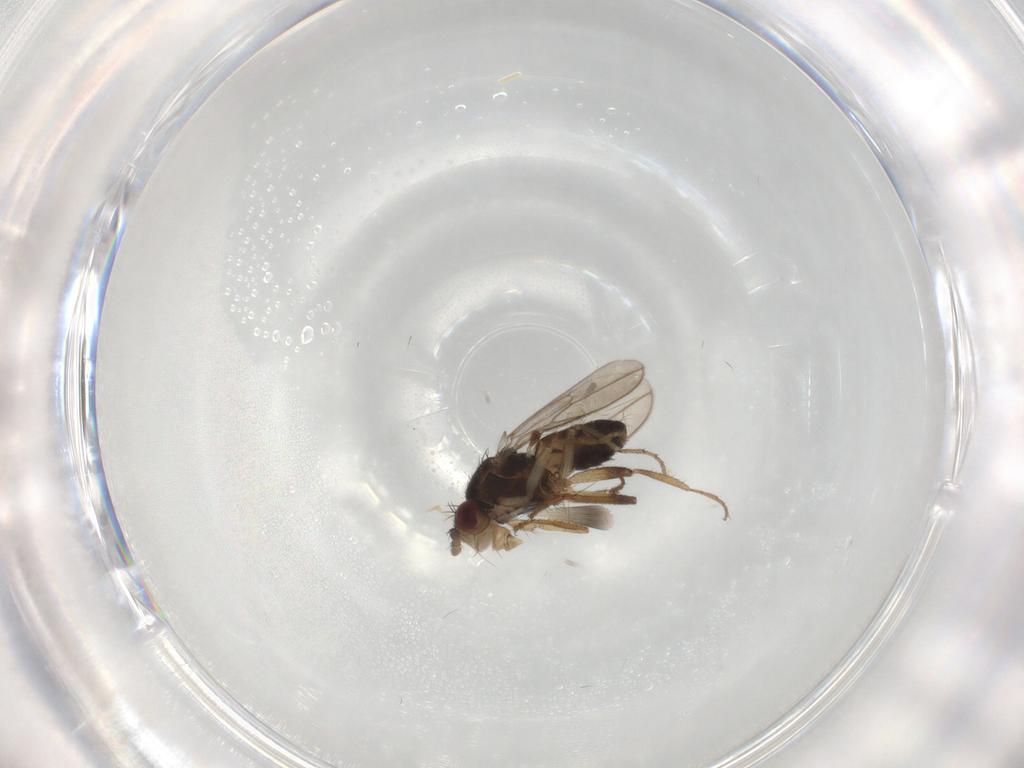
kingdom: Animalia
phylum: Arthropoda
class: Insecta
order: Diptera
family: Sphaeroceridae
